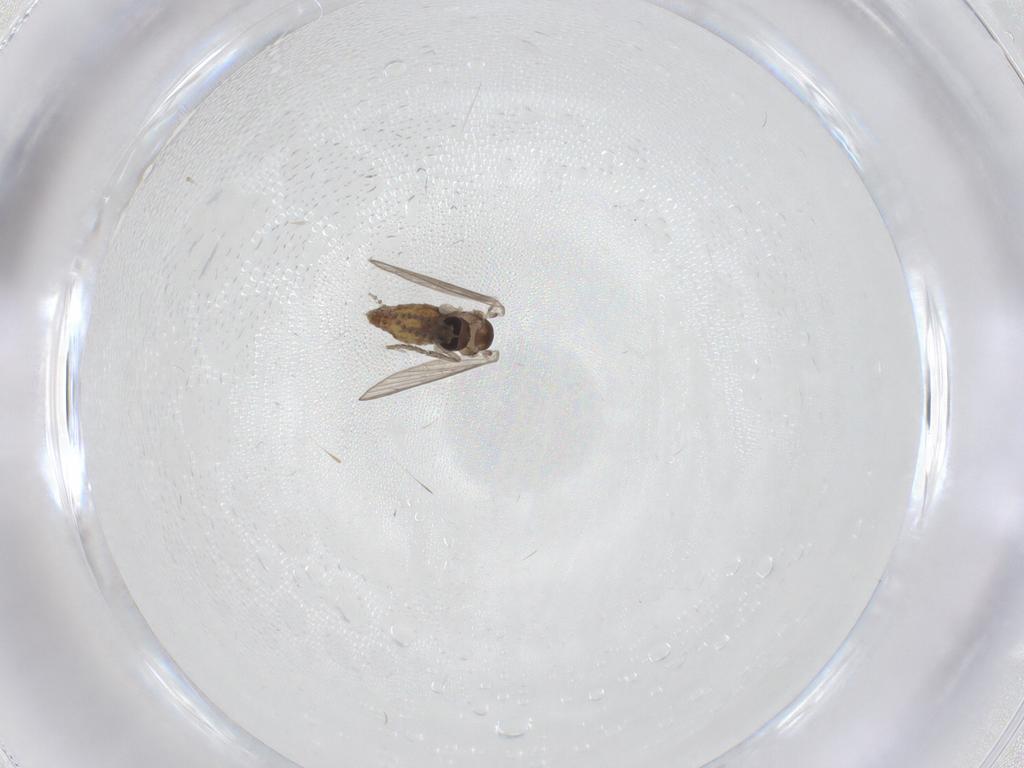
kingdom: Animalia
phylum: Arthropoda
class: Insecta
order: Diptera
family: Psychodidae
